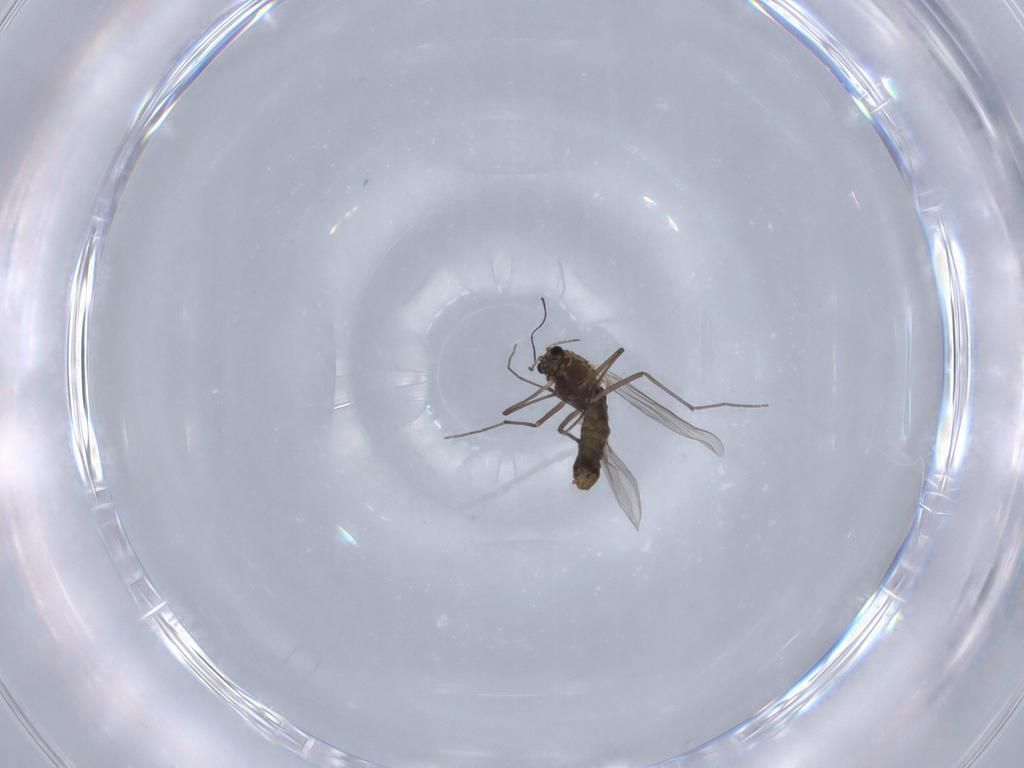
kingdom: Animalia
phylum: Arthropoda
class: Insecta
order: Diptera
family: Chironomidae
